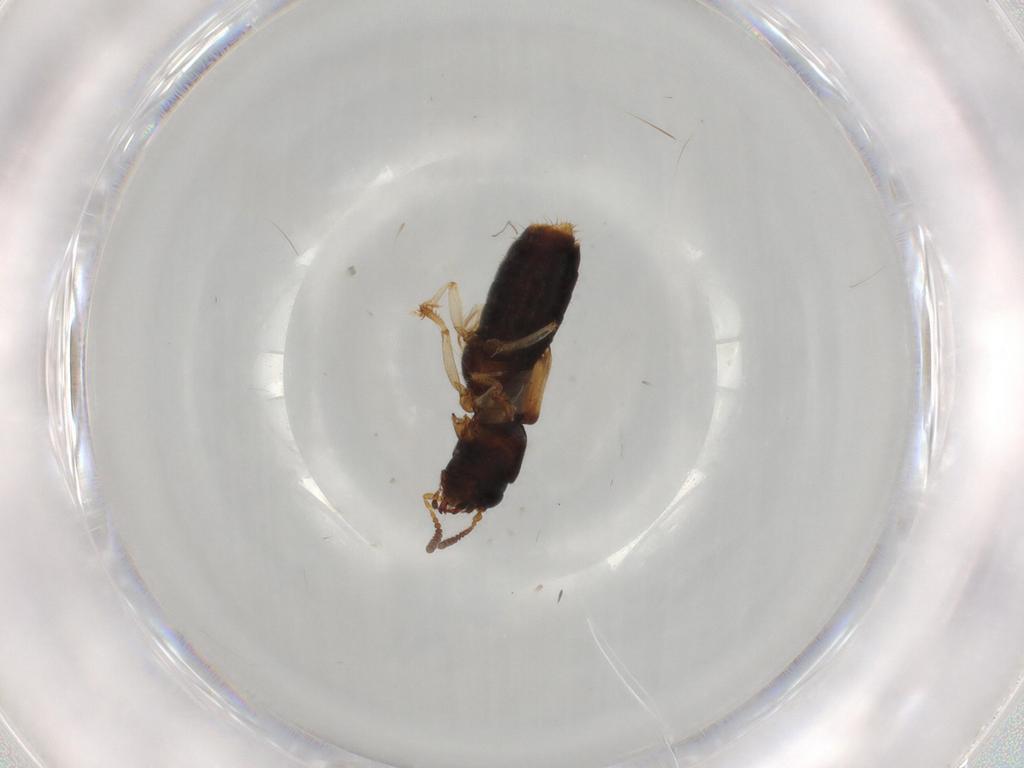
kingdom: Animalia
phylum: Arthropoda
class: Insecta
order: Coleoptera
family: Staphylinidae
